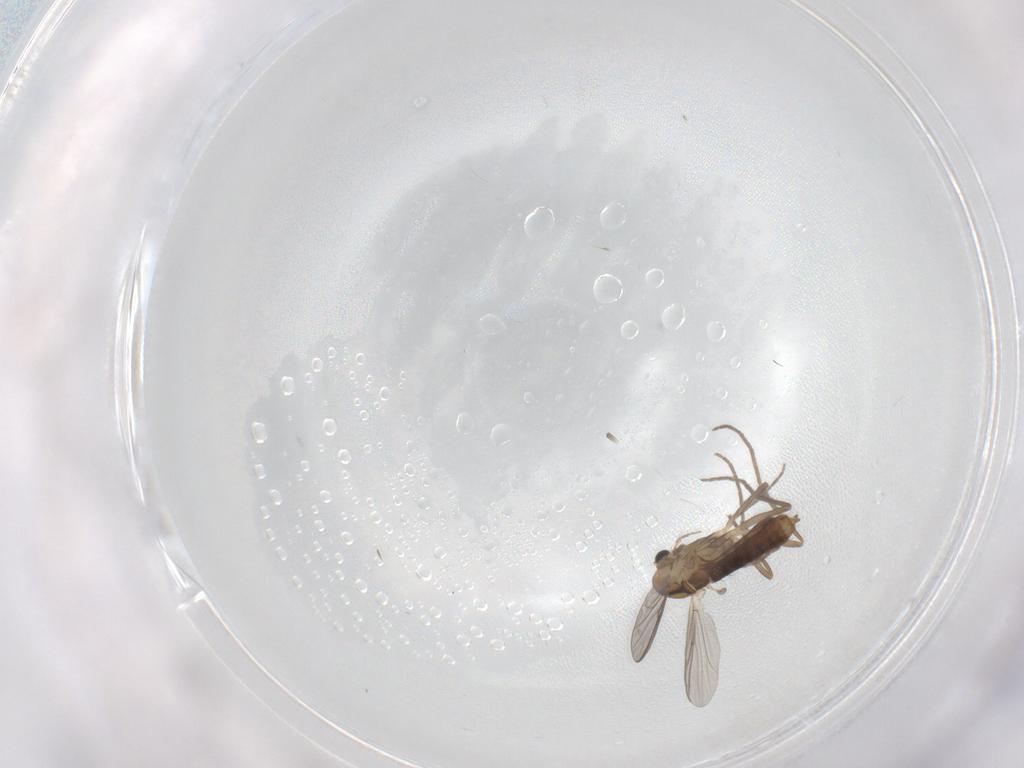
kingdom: Animalia
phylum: Arthropoda
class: Insecta
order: Diptera
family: Chironomidae
